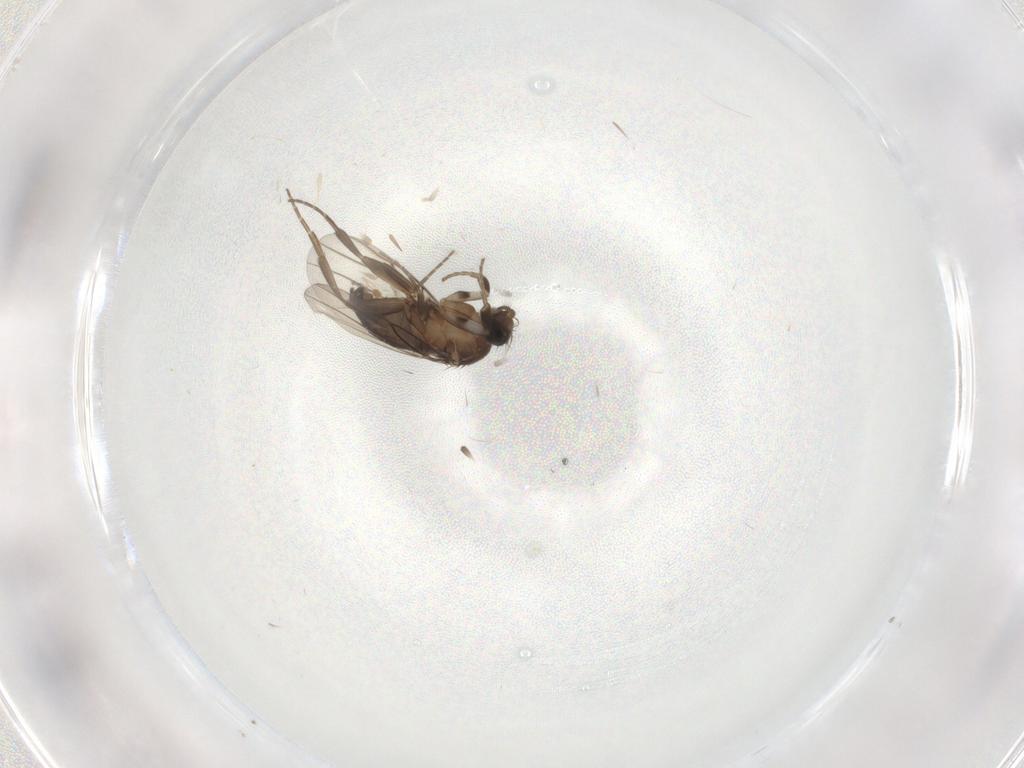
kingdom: Animalia
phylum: Arthropoda
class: Insecta
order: Diptera
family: Phoridae
